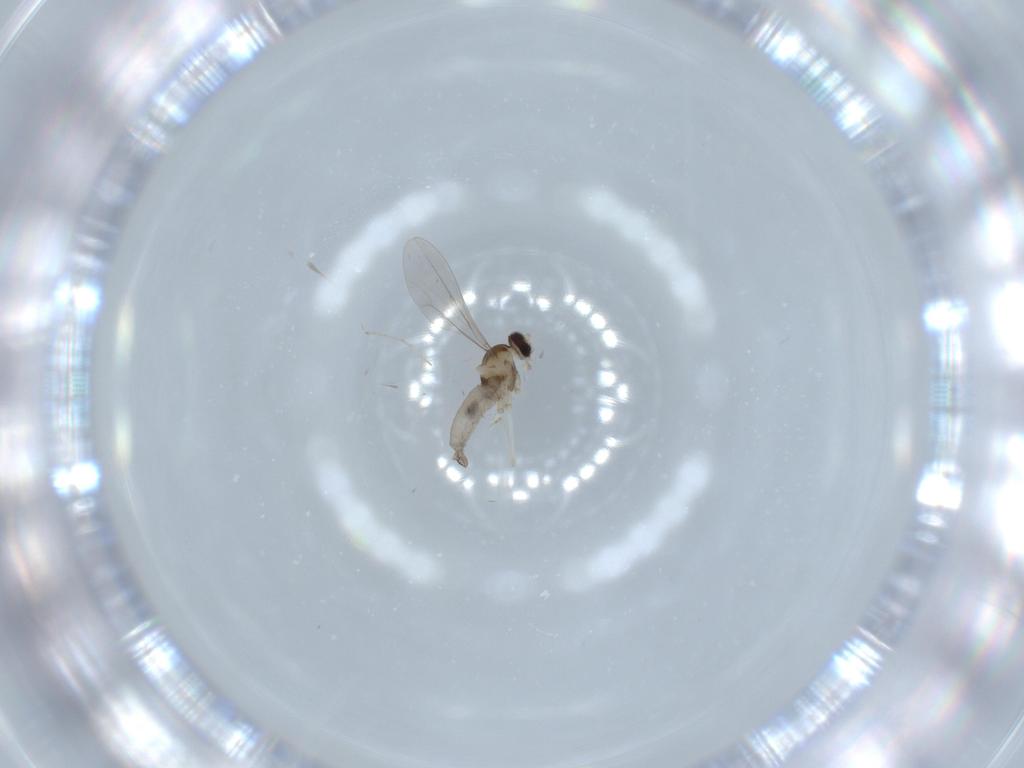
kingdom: Animalia
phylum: Arthropoda
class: Insecta
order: Diptera
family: Cecidomyiidae
